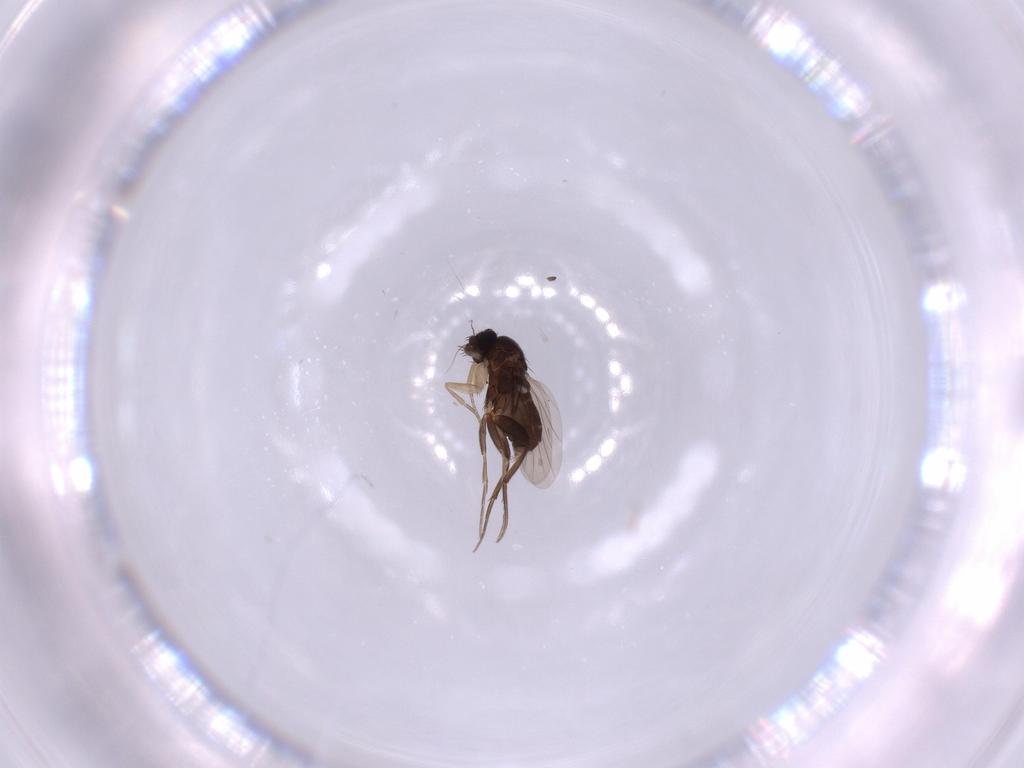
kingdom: Animalia
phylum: Arthropoda
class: Insecta
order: Diptera
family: Phoridae
